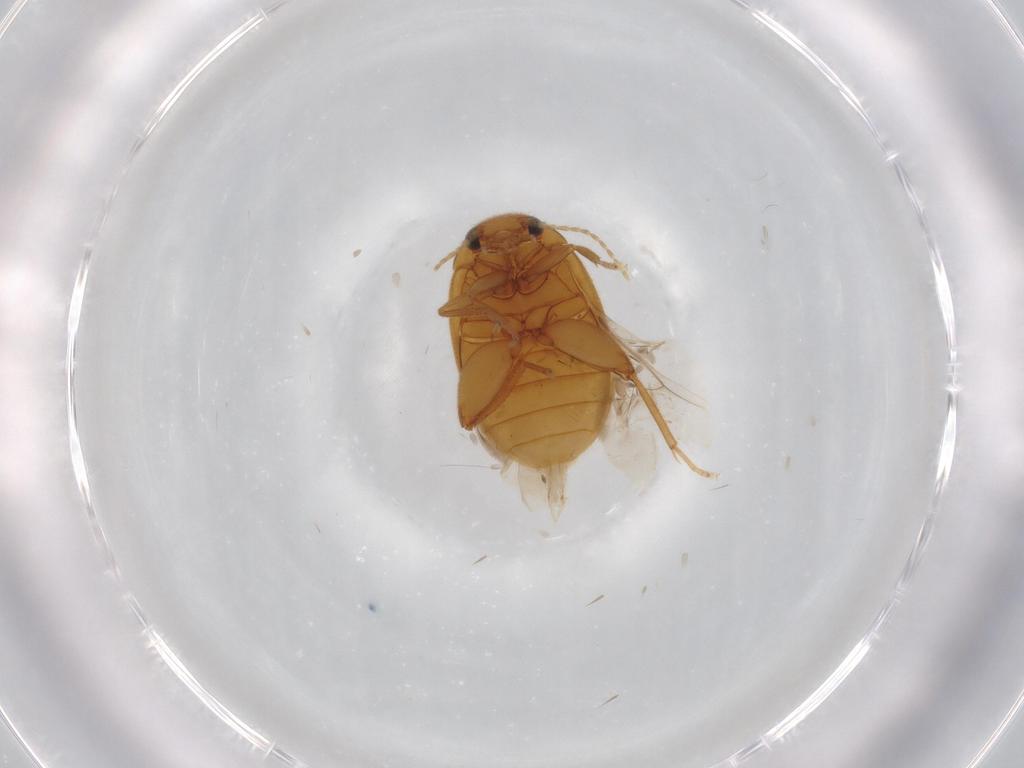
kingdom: Animalia
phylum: Arthropoda
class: Insecta
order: Coleoptera
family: Scirtidae
